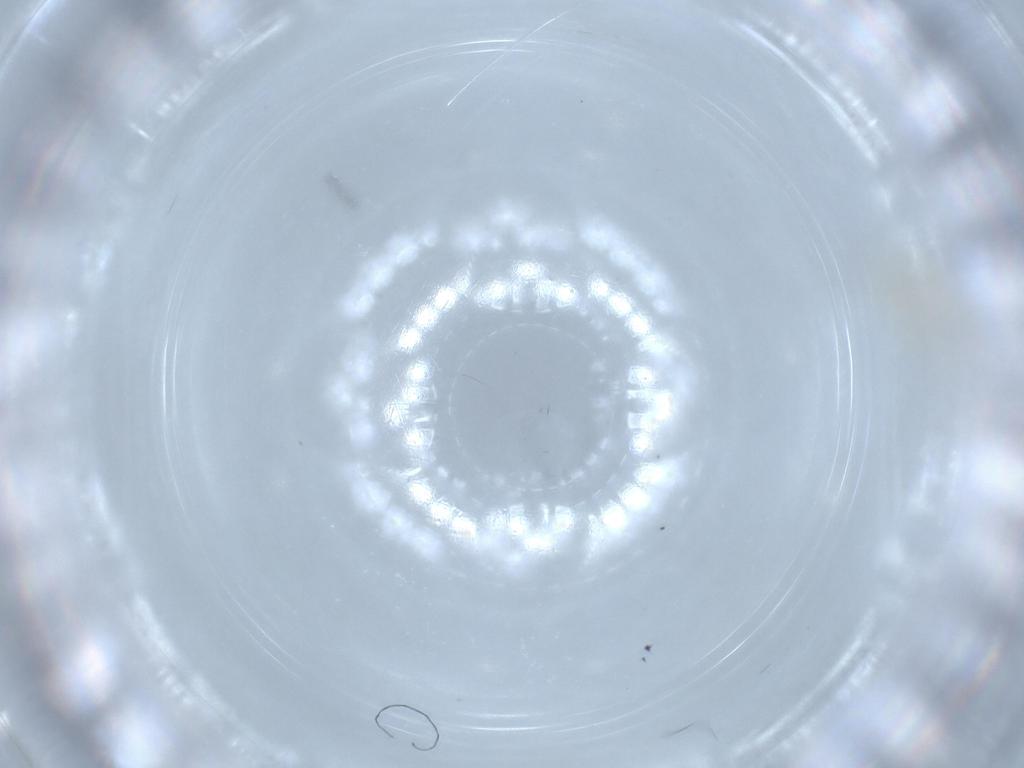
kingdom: Animalia
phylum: Arthropoda
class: Insecta
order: Diptera
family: Cecidomyiidae
